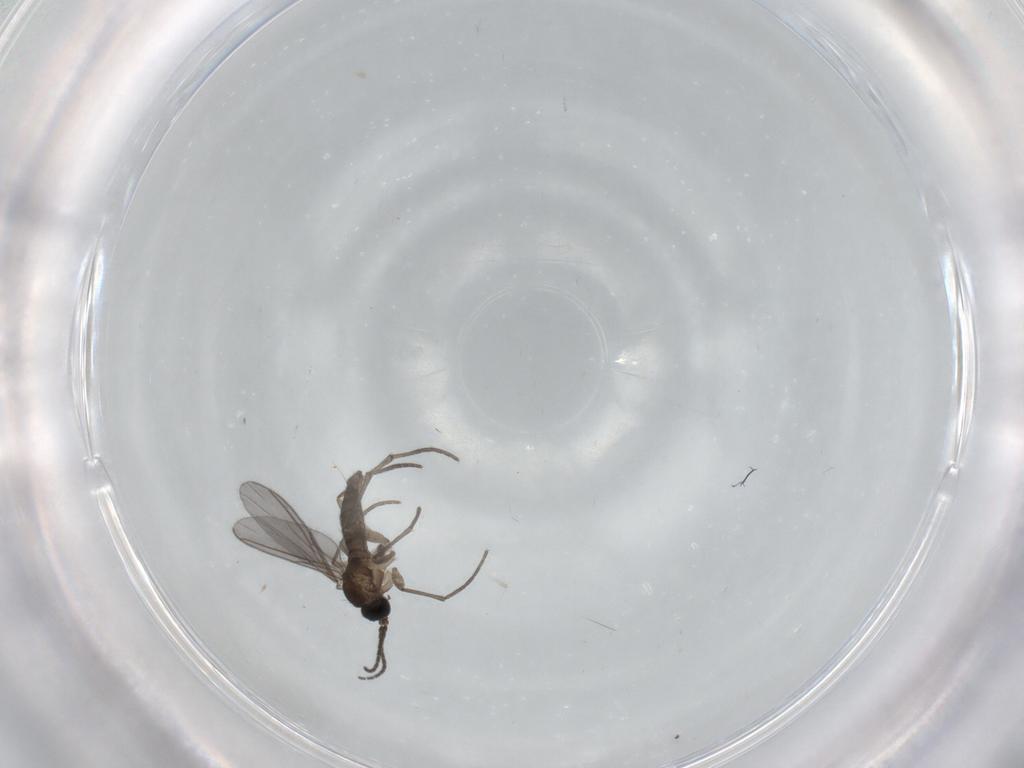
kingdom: Animalia
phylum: Arthropoda
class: Insecta
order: Diptera
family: Sciaridae
